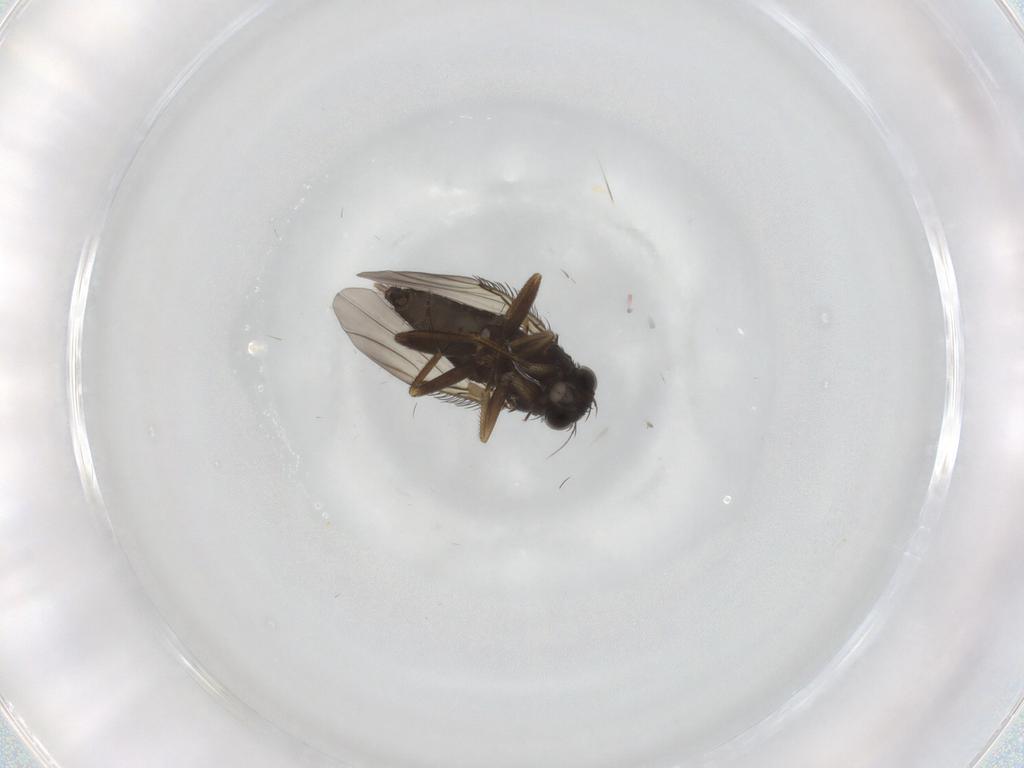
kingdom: Animalia
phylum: Arthropoda
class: Insecta
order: Diptera
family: Phoridae
